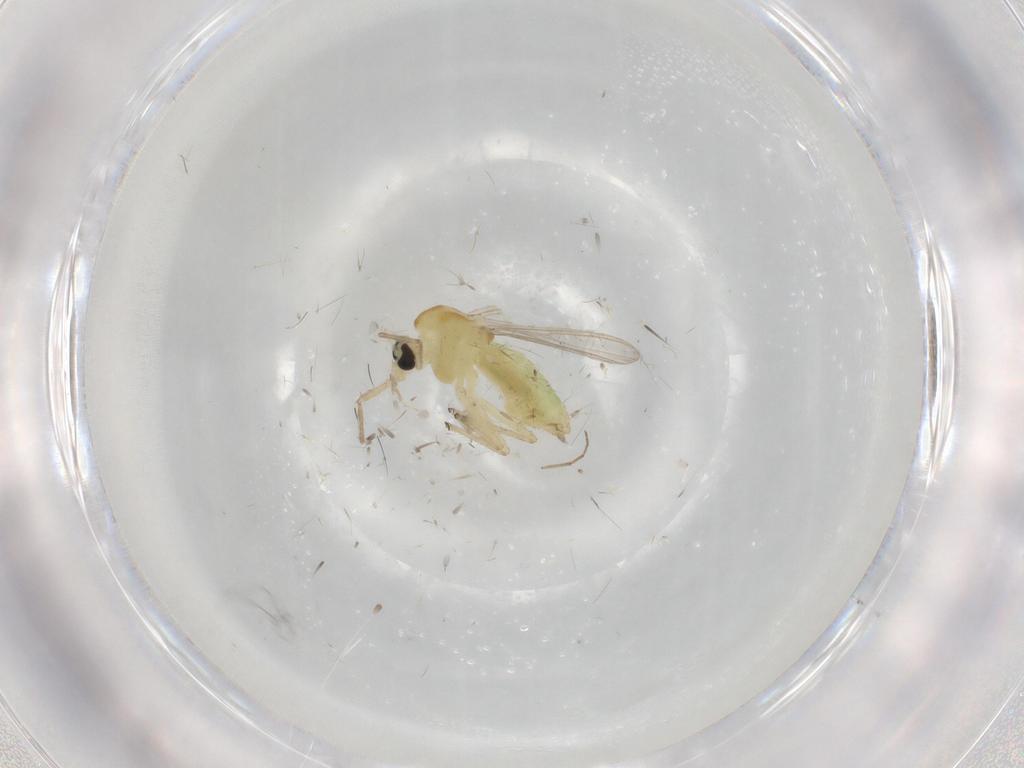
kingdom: Animalia
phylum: Arthropoda
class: Insecta
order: Diptera
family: Chironomidae
